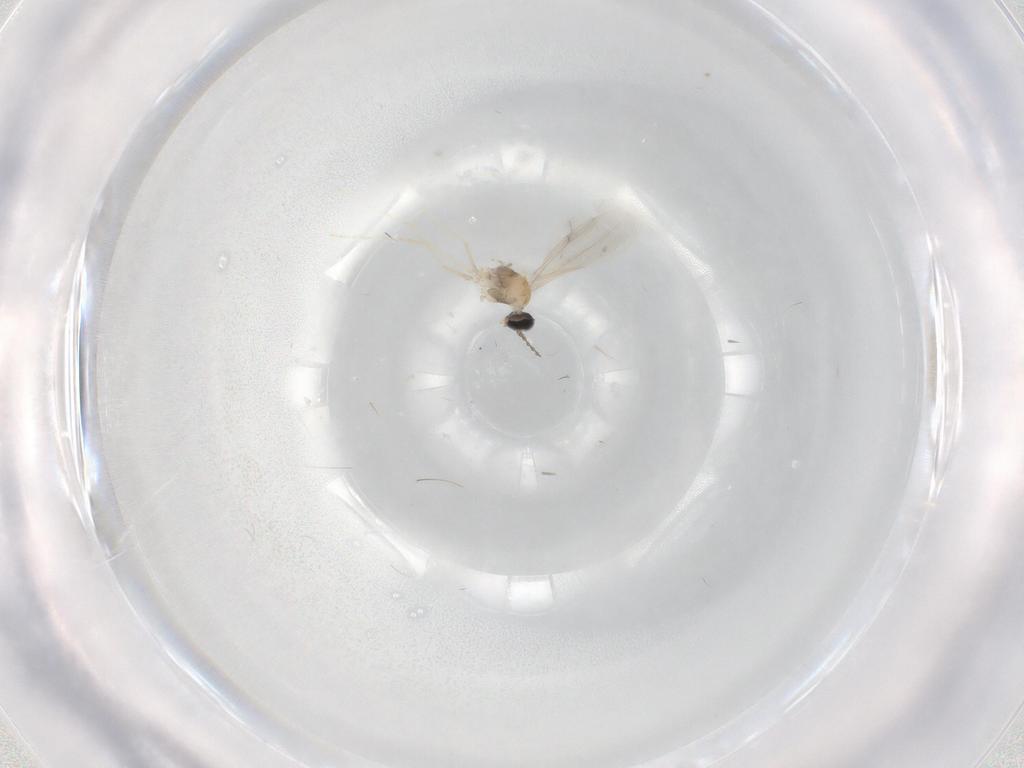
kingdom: Animalia
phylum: Arthropoda
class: Insecta
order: Diptera
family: Cecidomyiidae
